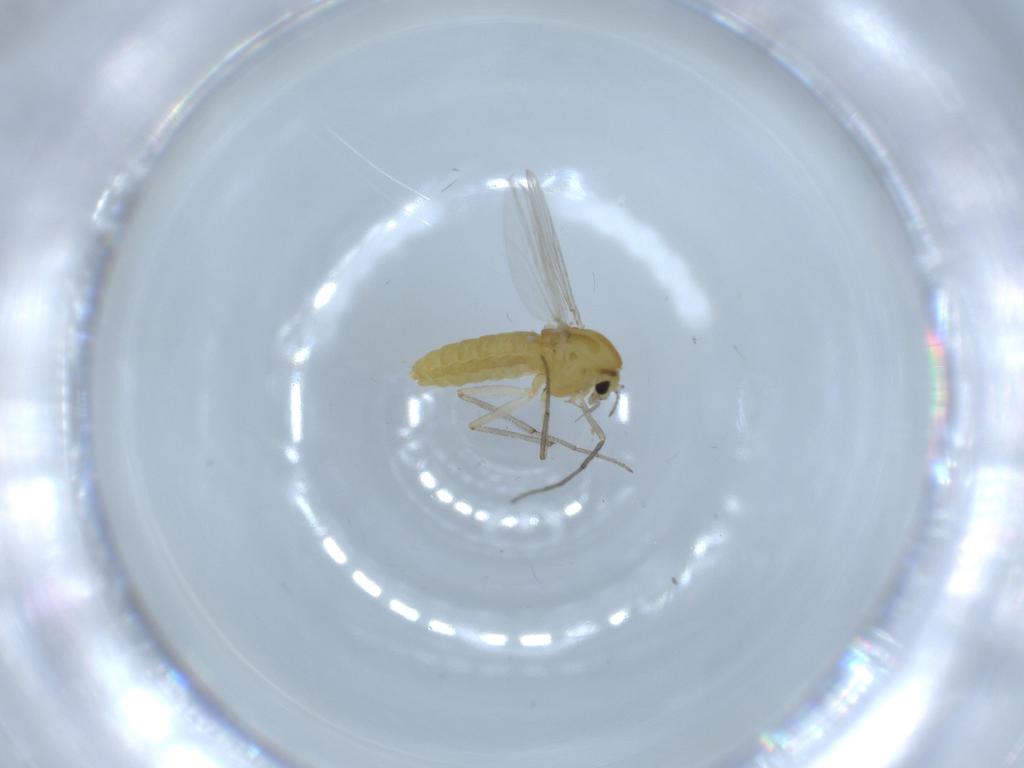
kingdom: Animalia
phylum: Arthropoda
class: Insecta
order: Diptera
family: Chironomidae
